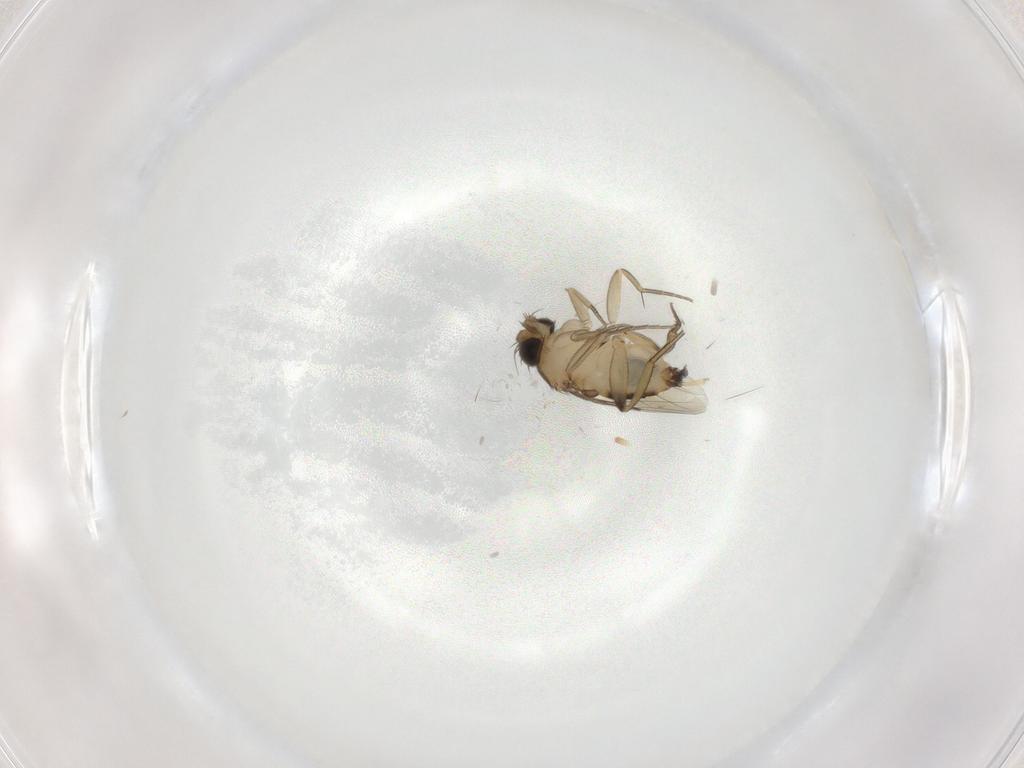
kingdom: Animalia
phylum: Arthropoda
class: Insecta
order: Diptera
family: Phoridae
